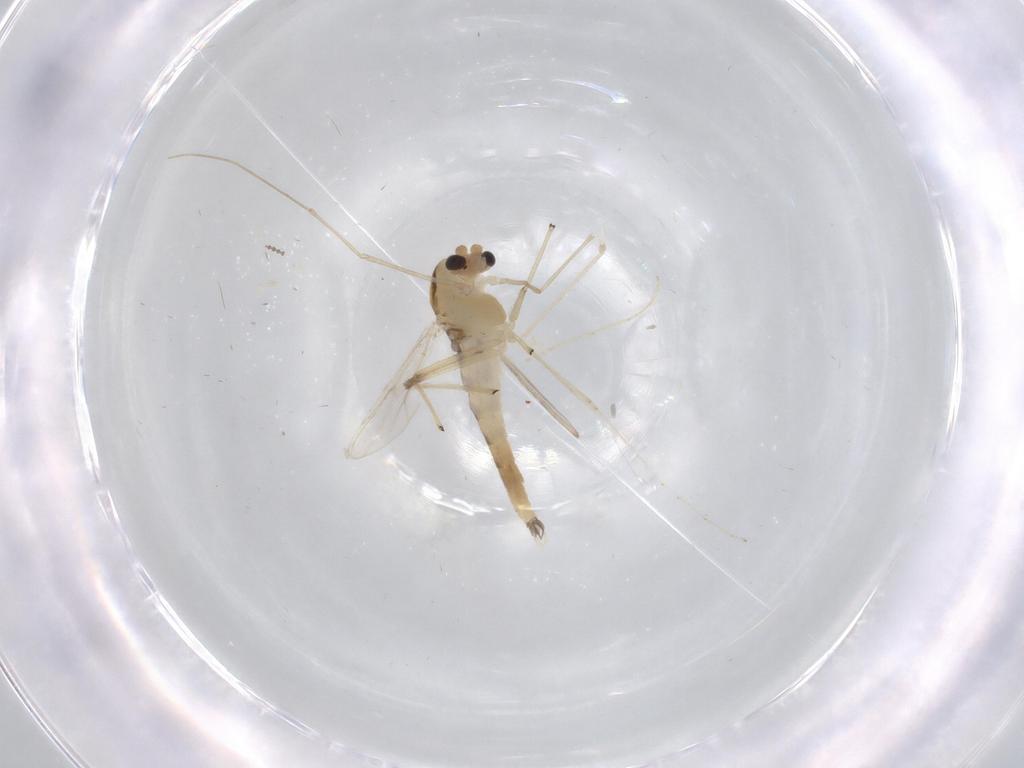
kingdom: Animalia
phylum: Arthropoda
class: Insecta
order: Diptera
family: Chironomidae
